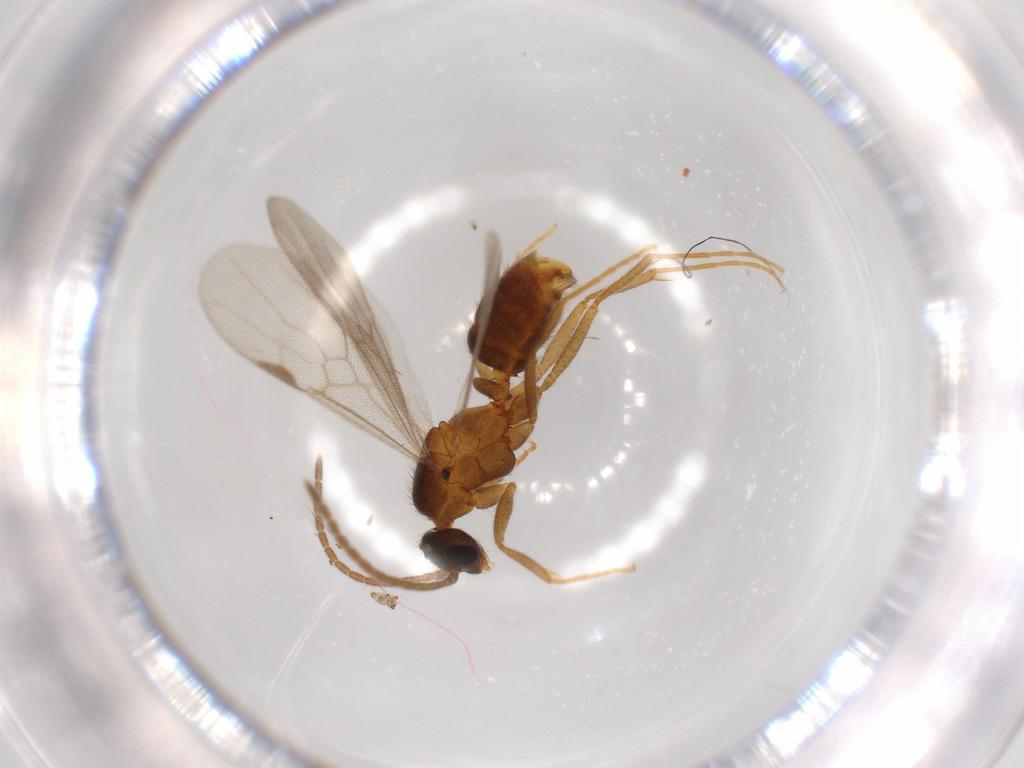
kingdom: Animalia
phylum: Arthropoda
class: Insecta
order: Hymenoptera
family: Formicidae
